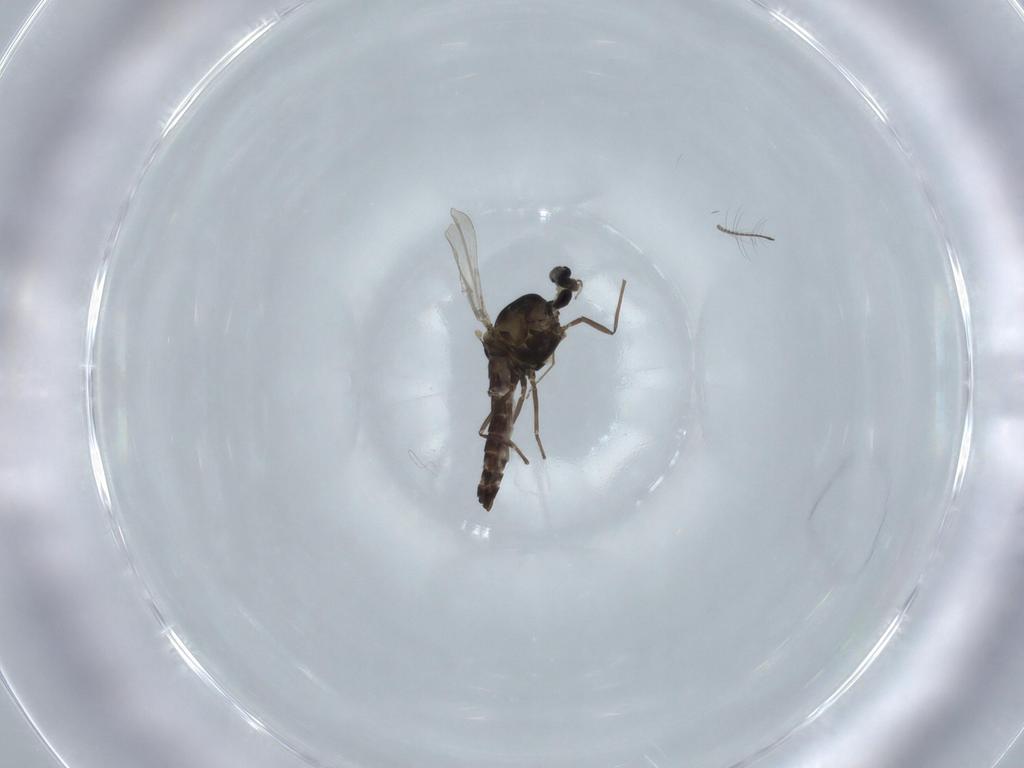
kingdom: Animalia
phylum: Arthropoda
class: Insecta
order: Diptera
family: Chironomidae
